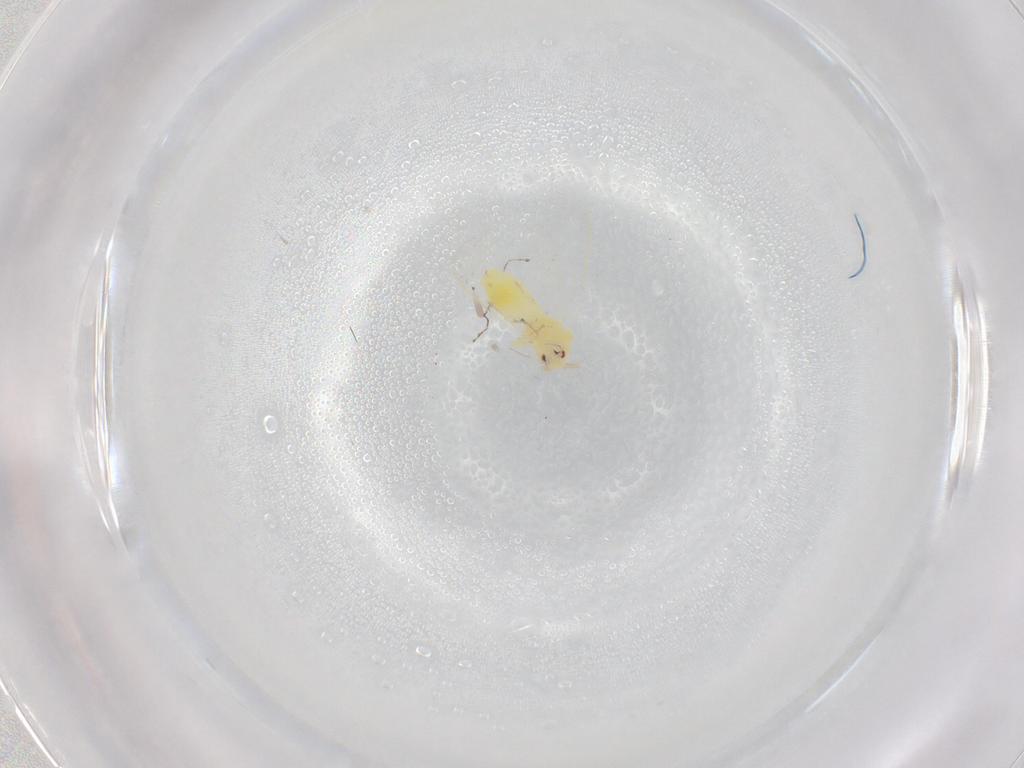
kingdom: Animalia
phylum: Arthropoda
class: Insecta
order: Hemiptera
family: Aleyrodidae
